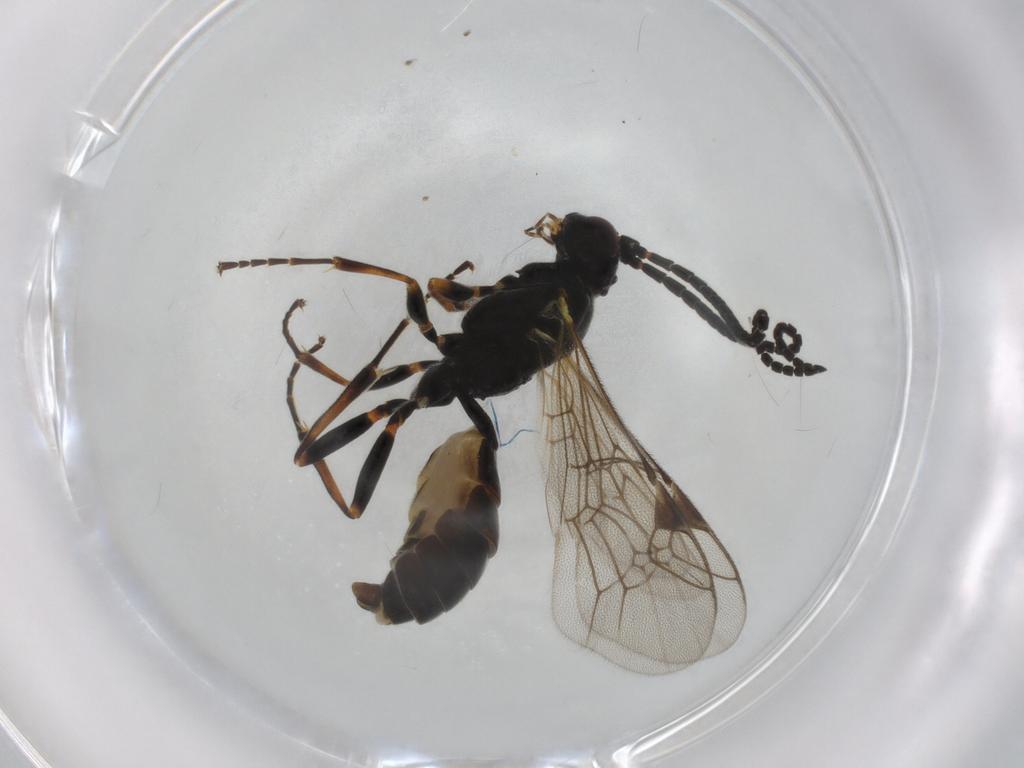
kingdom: Animalia
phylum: Arthropoda
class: Insecta
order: Hymenoptera
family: Ichneumonidae
